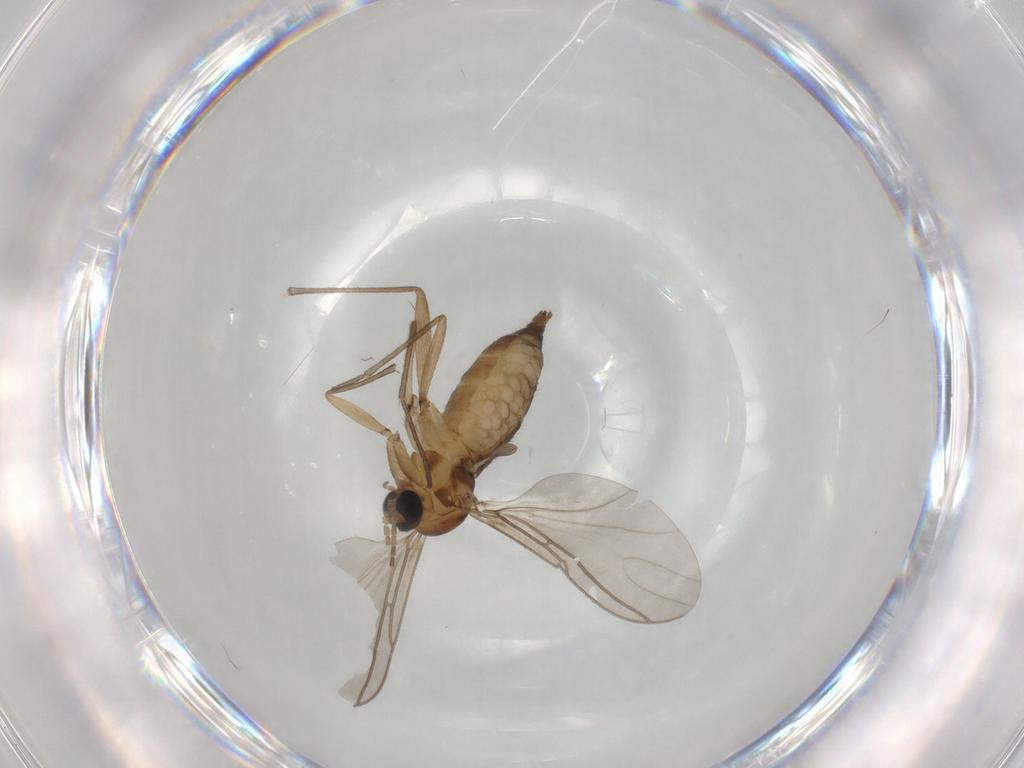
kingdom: Animalia
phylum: Arthropoda
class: Insecta
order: Diptera
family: Sciaridae
